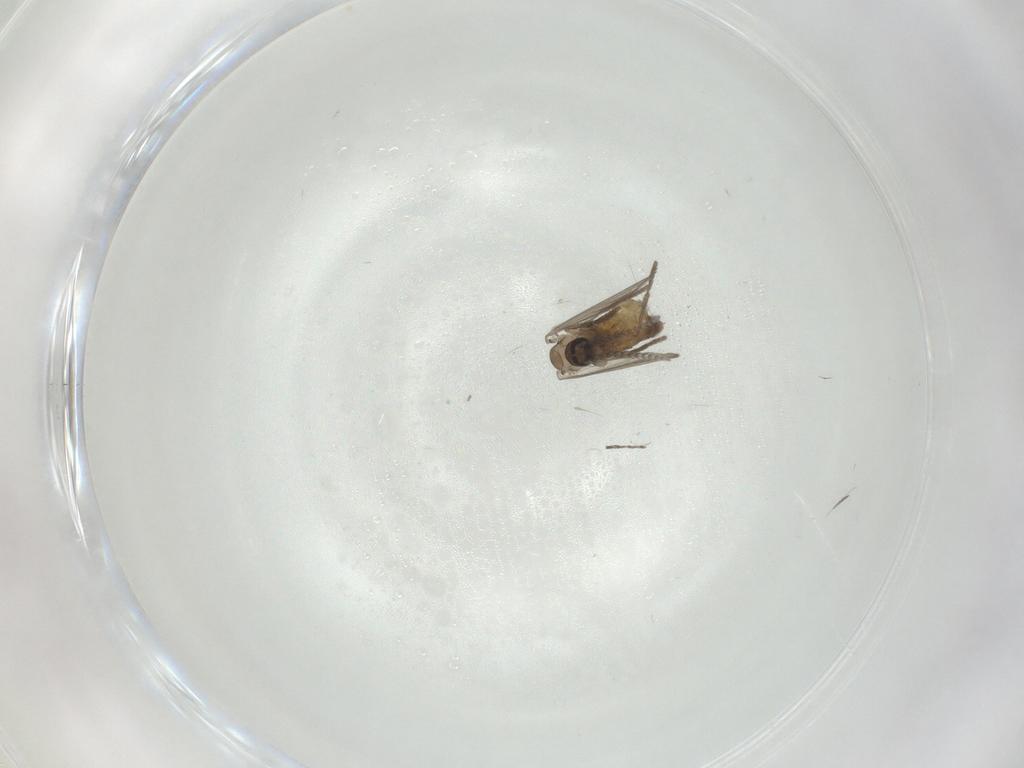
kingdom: Animalia
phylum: Arthropoda
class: Insecta
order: Diptera
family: Psychodidae
